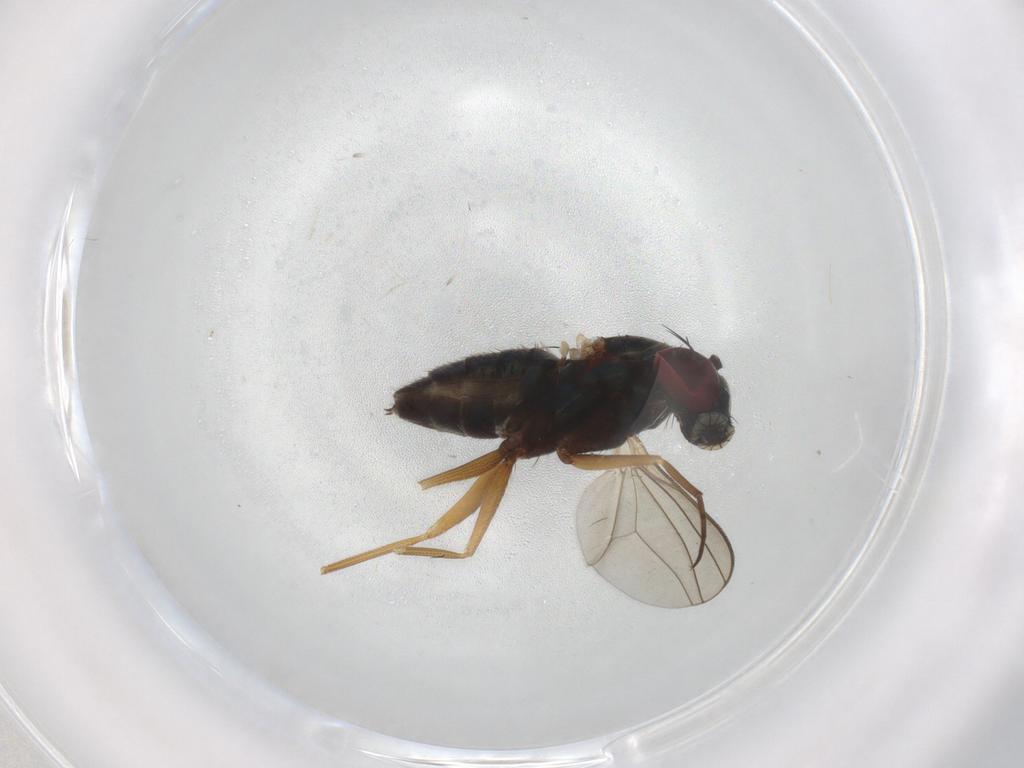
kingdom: Animalia
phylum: Arthropoda
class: Insecta
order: Diptera
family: Dolichopodidae
